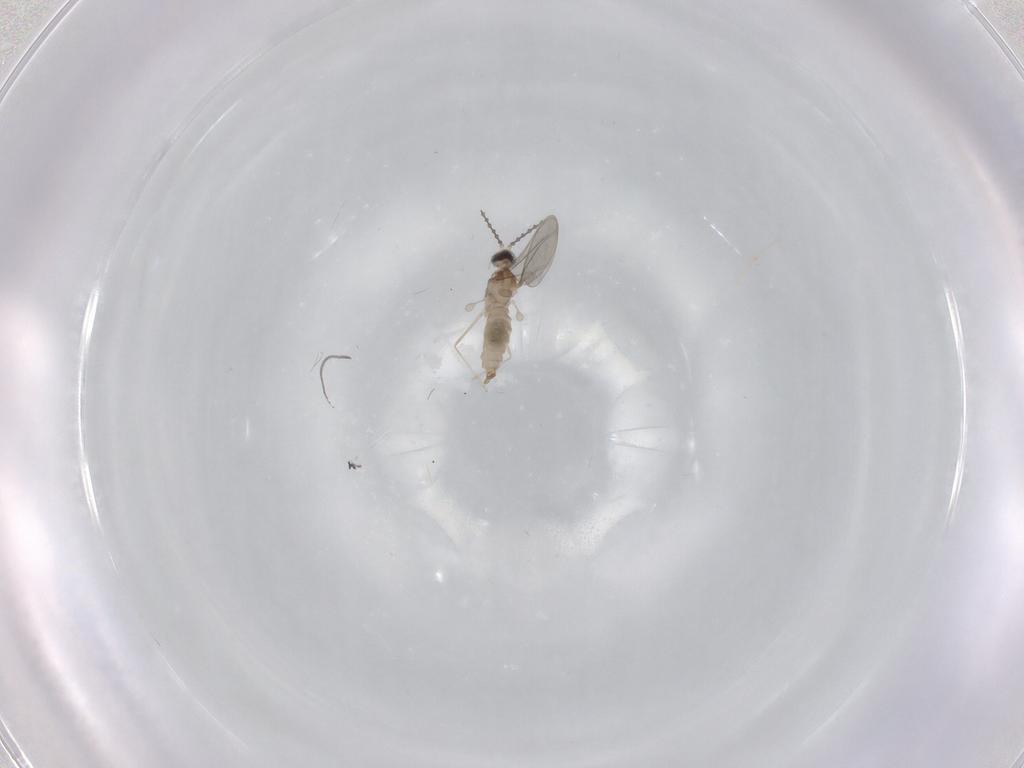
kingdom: Animalia
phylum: Arthropoda
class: Insecta
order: Diptera
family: Cecidomyiidae
